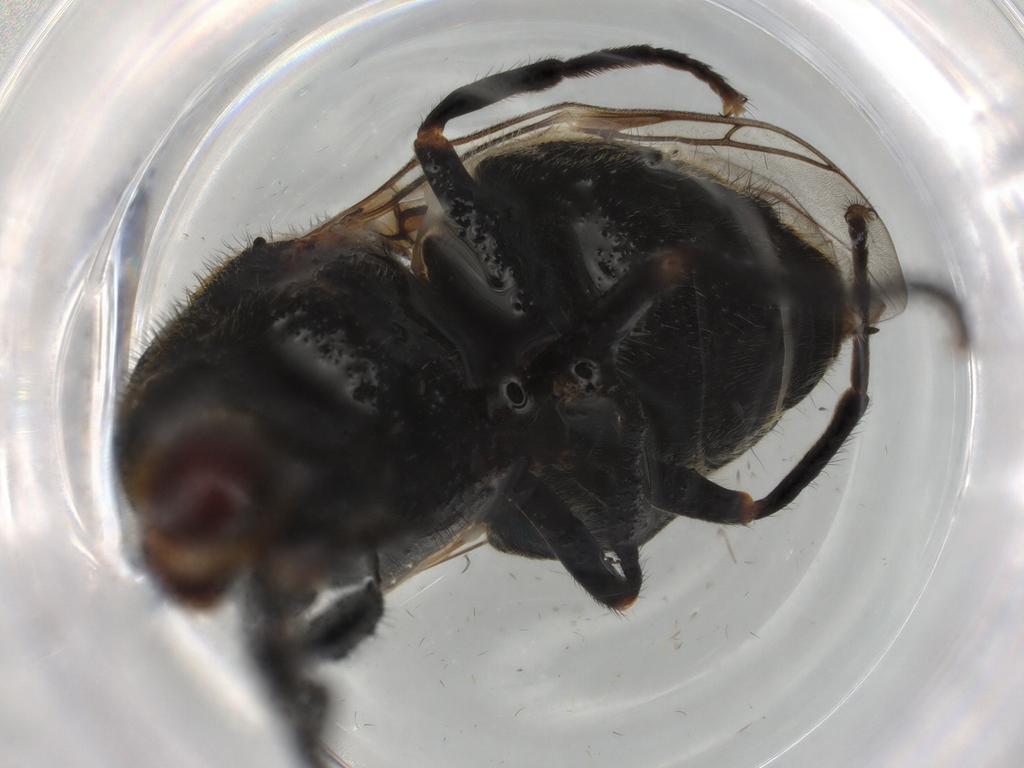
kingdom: Animalia
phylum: Arthropoda
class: Insecta
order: Diptera
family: Stratiomyidae
